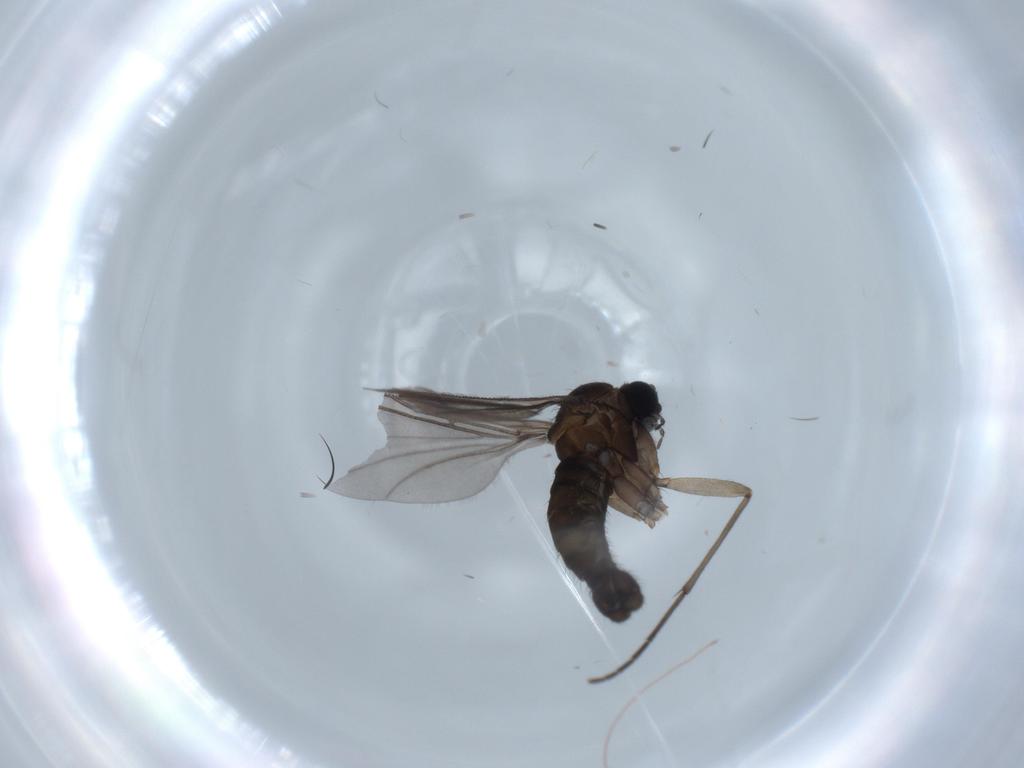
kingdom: Animalia
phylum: Arthropoda
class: Insecta
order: Diptera
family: Sciaridae
